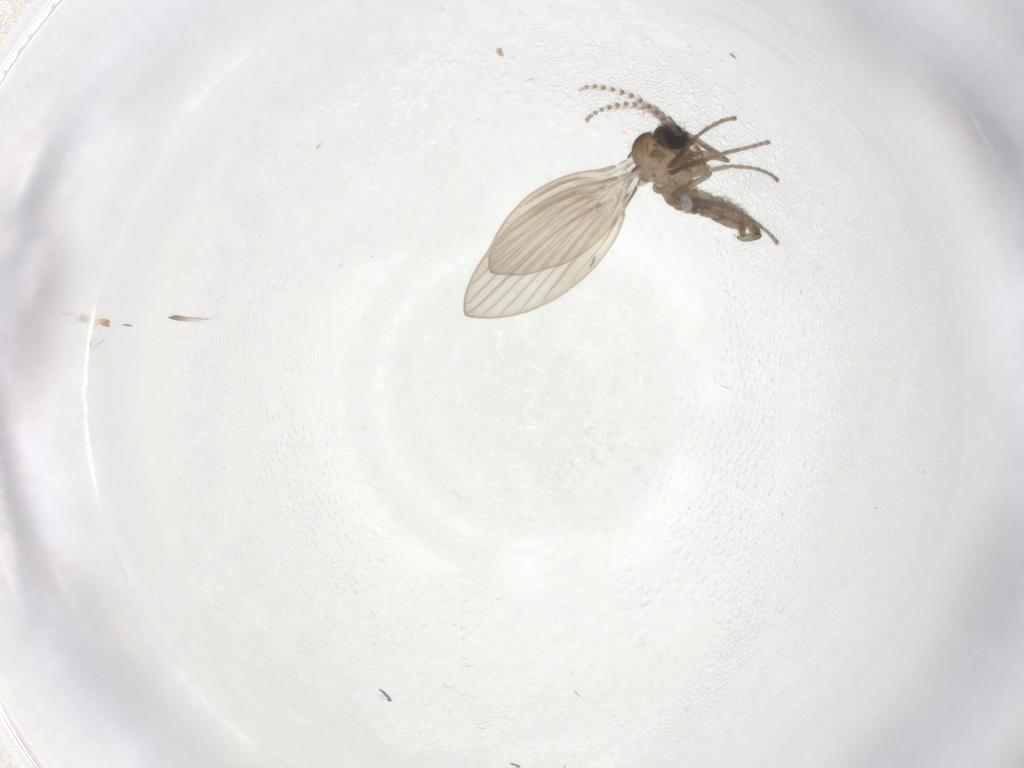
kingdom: Animalia
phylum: Arthropoda
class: Insecta
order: Diptera
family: Psychodidae
